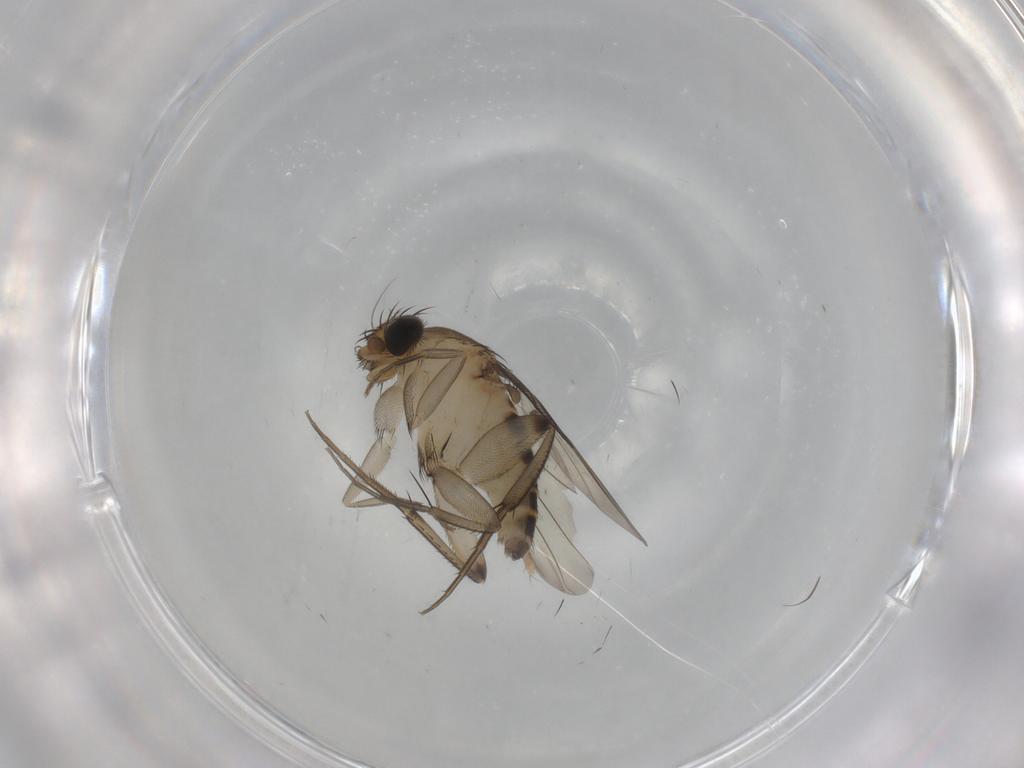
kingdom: Animalia
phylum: Arthropoda
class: Insecta
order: Diptera
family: Phoridae
